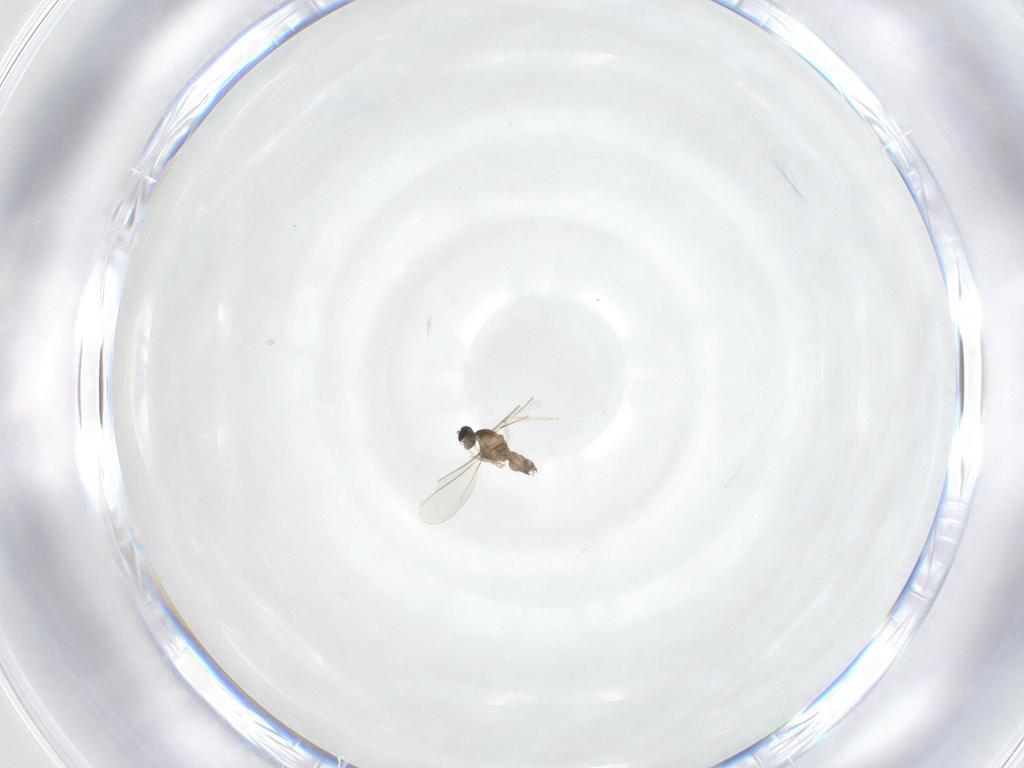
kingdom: Animalia
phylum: Arthropoda
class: Insecta
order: Diptera
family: Cecidomyiidae
